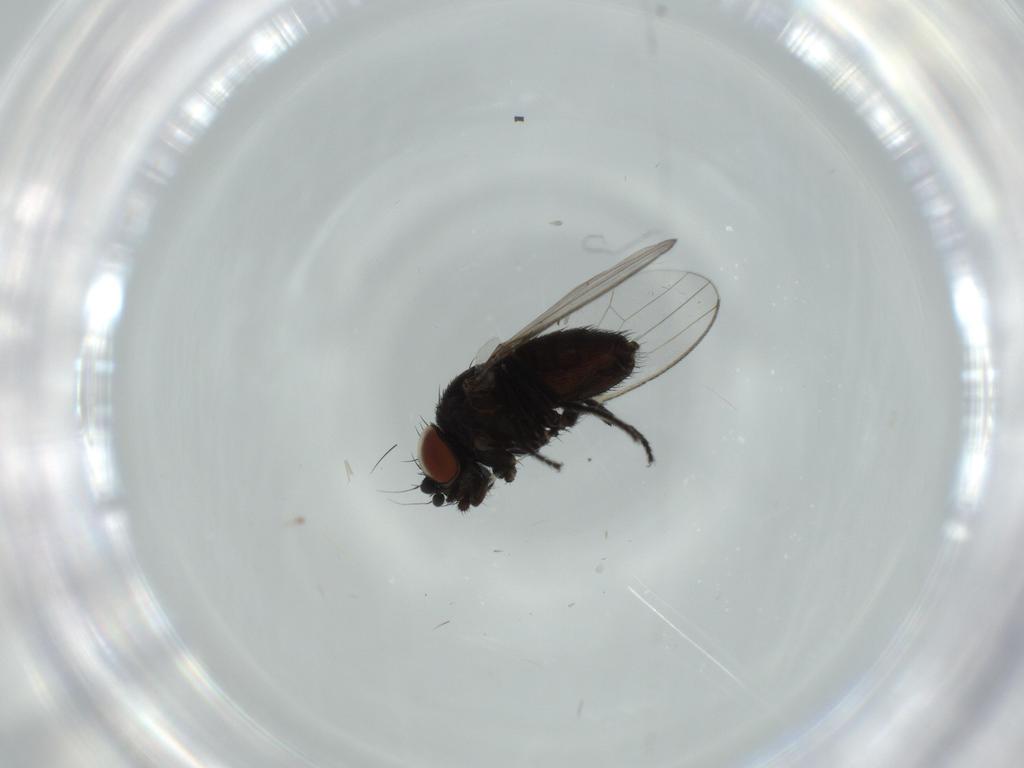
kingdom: Animalia
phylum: Arthropoda
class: Insecta
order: Diptera
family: Milichiidae
